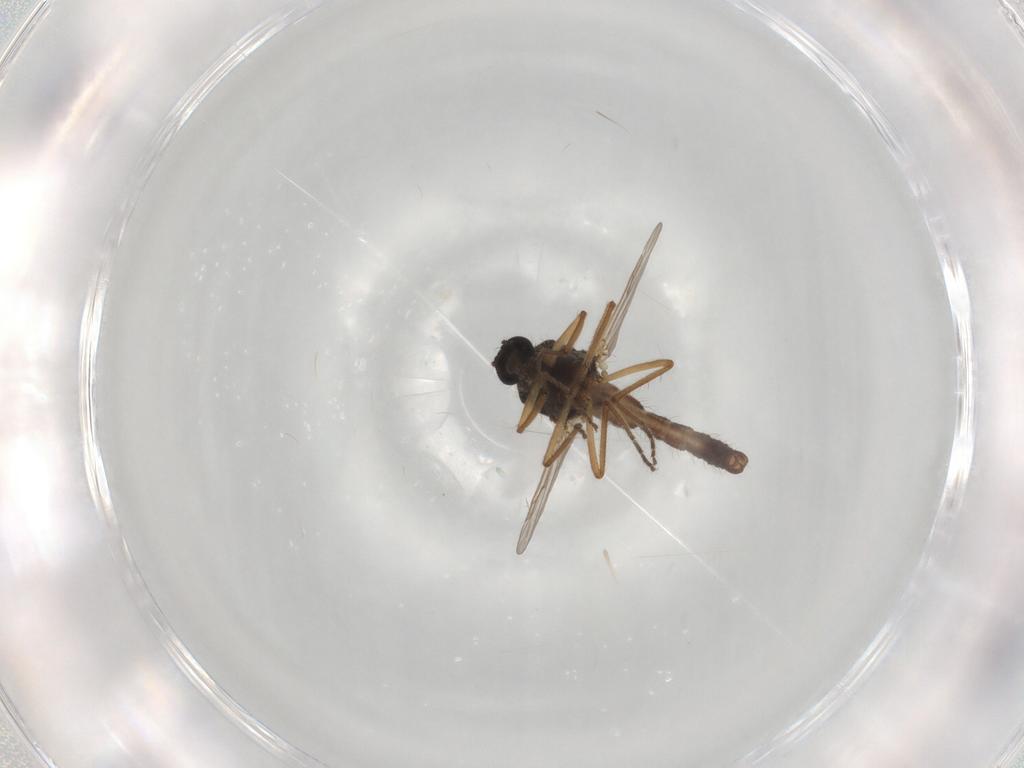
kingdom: Animalia
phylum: Arthropoda
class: Insecta
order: Diptera
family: Ceratopogonidae
